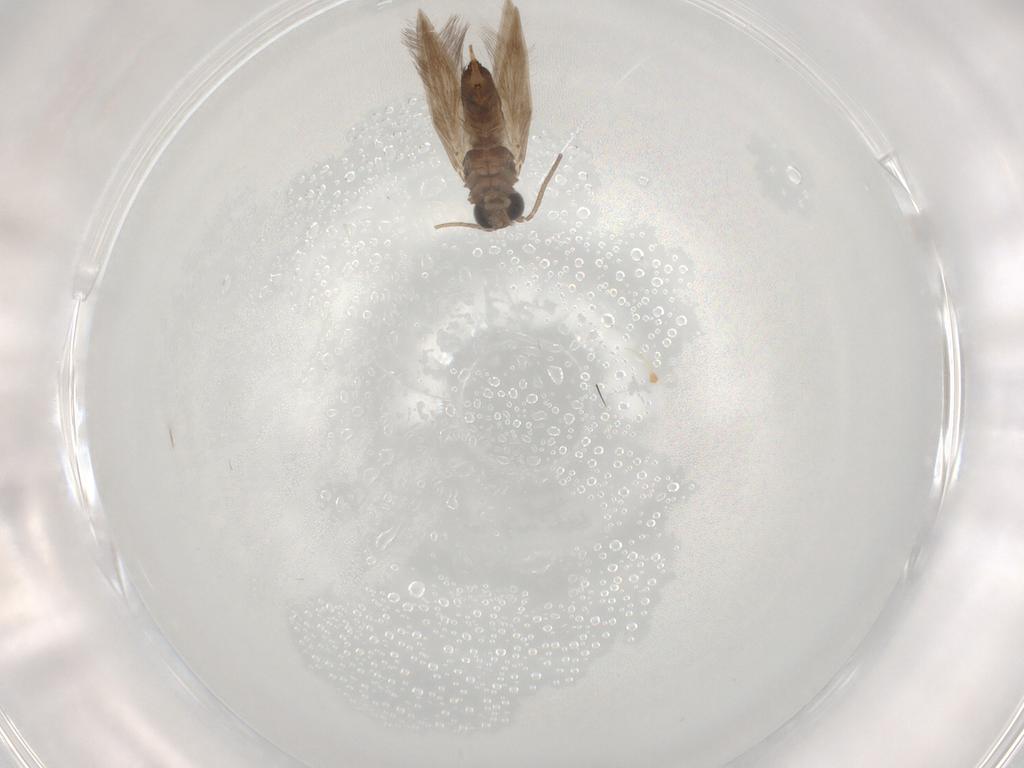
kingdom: Animalia
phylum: Arthropoda
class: Insecta
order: Trichoptera
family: Hydroptilidae
